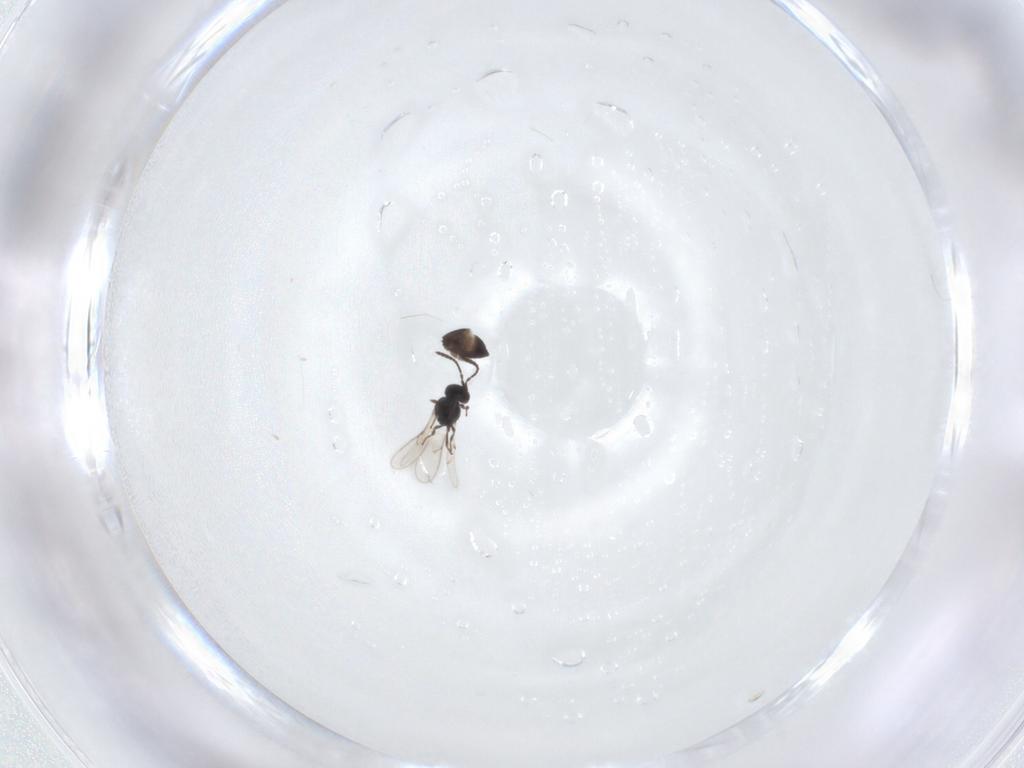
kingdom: Animalia
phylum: Arthropoda
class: Insecta
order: Hymenoptera
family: Scelionidae
